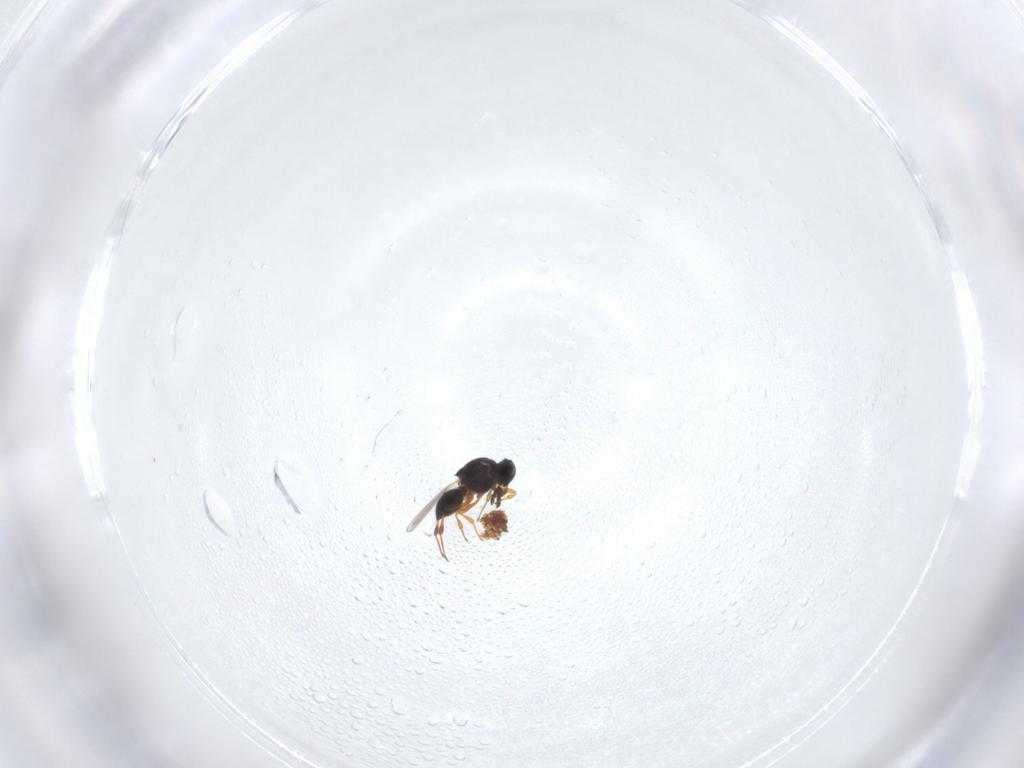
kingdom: Animalia
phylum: Arthropoda
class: Insecta
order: Hymenoptera
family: Platygastridae
